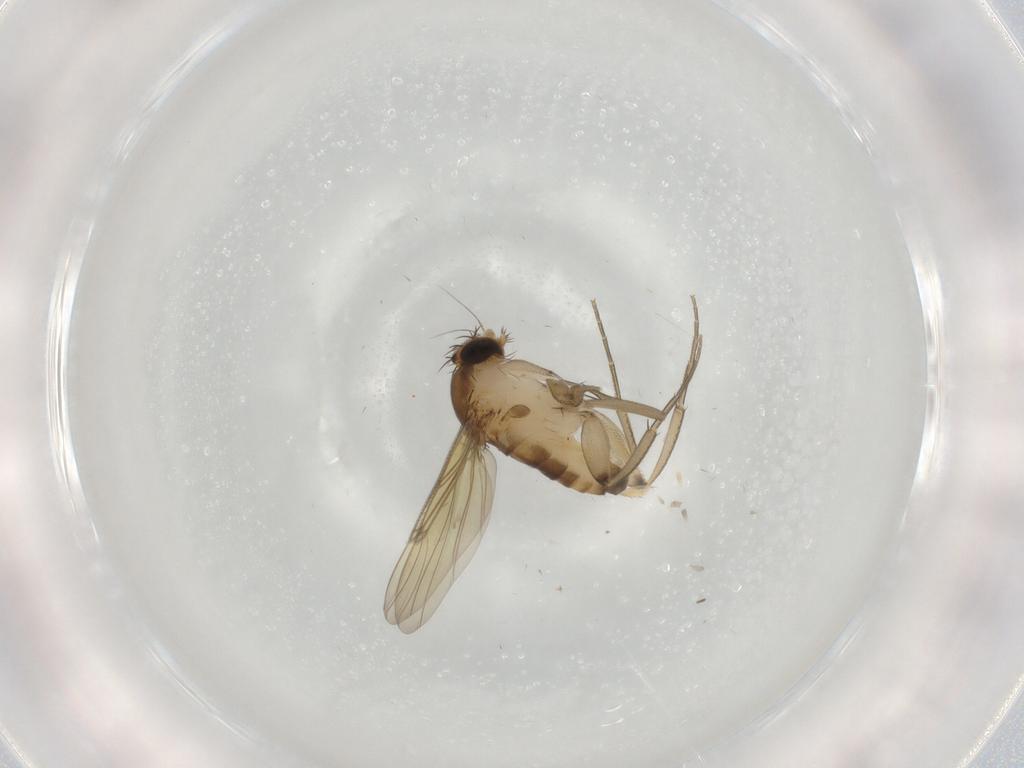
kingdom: Animalia
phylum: Arthropoda
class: Insecta
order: Diptera
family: Phoridae
